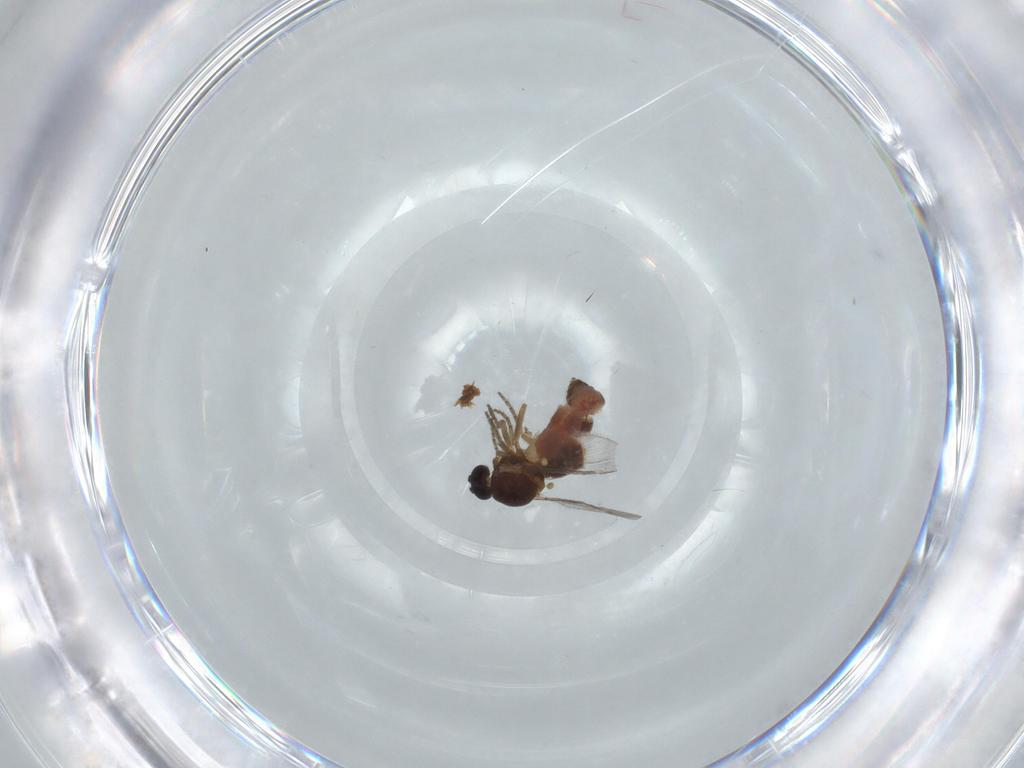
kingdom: Animalia
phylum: Arthropoda
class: Insecta
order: Diptera
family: Ceratopogonidae
